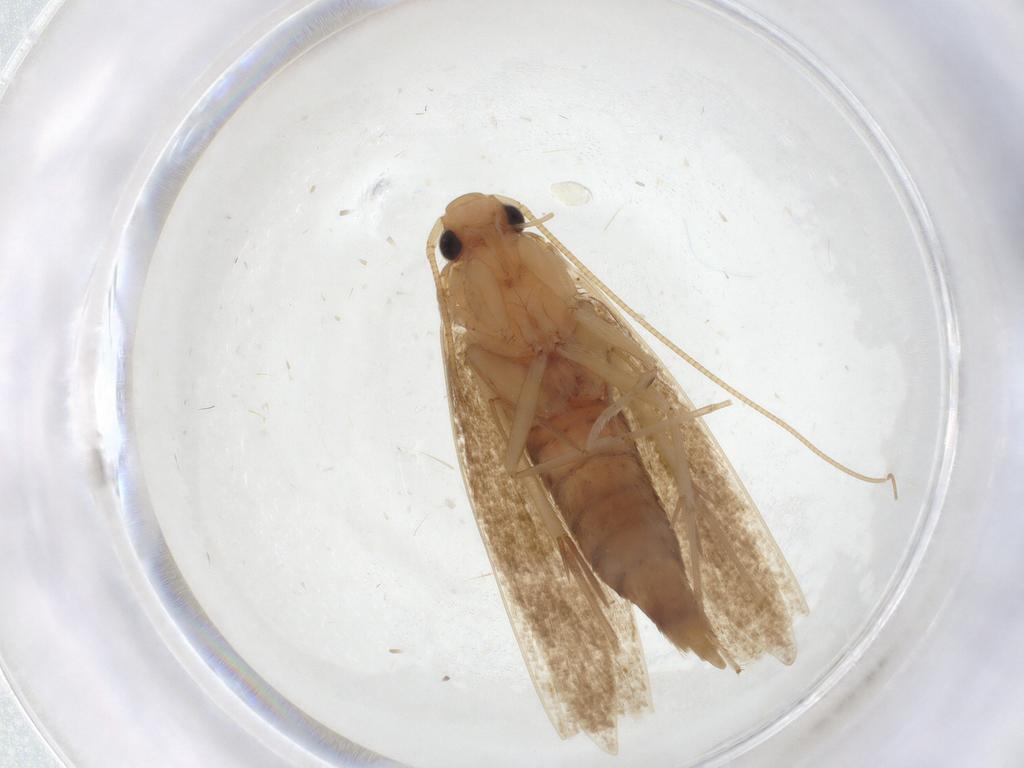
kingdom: Animalia
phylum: Arthropoda
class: Insecta
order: Lepidoptera
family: Tineidae
